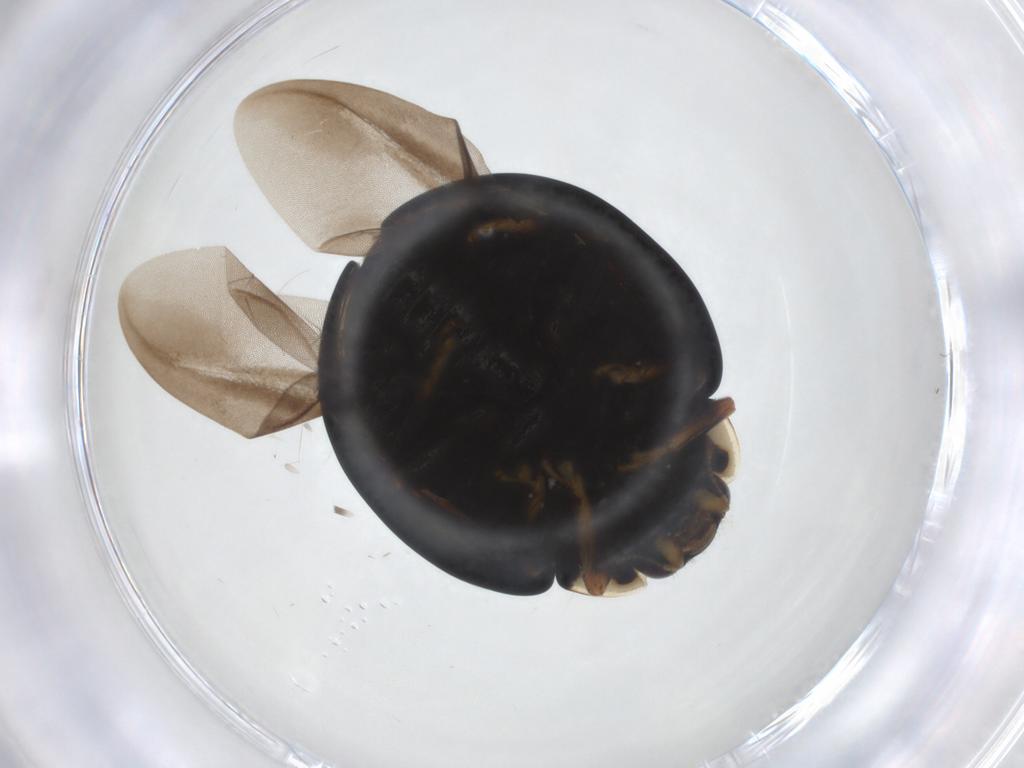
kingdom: Animalia
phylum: Arthropoda
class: Insecta
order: Coleoptera
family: Coccinellidae
